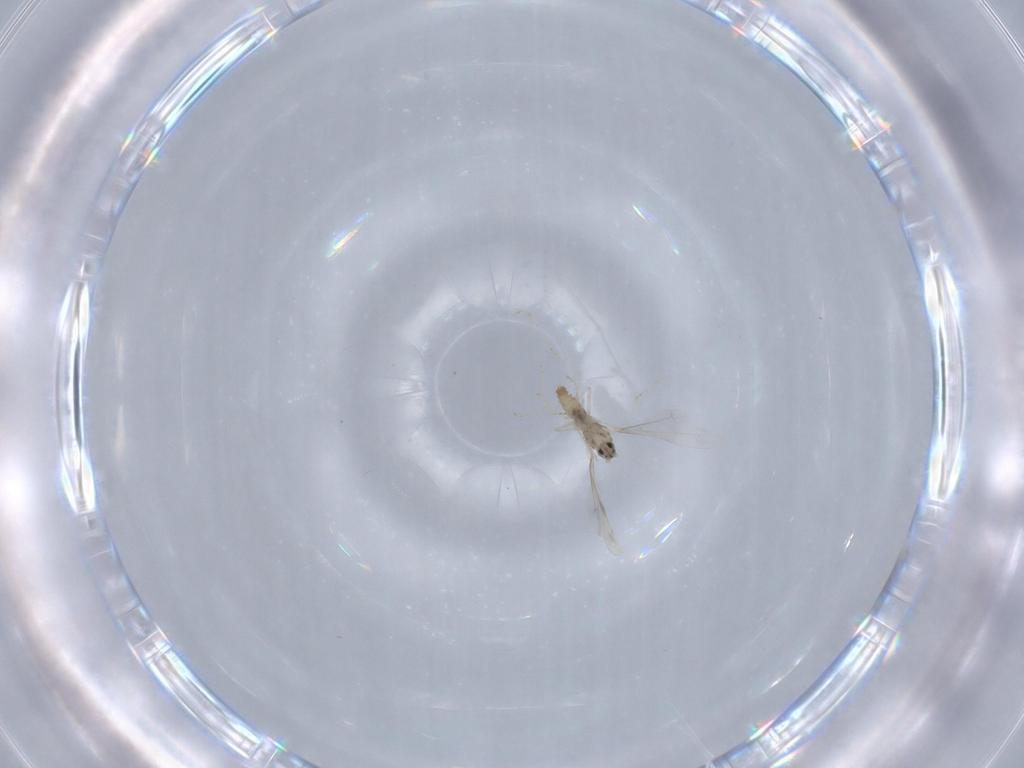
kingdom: Animalia
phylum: Arthropoda
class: Insecta
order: Diptera
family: Cecidomyiidae
